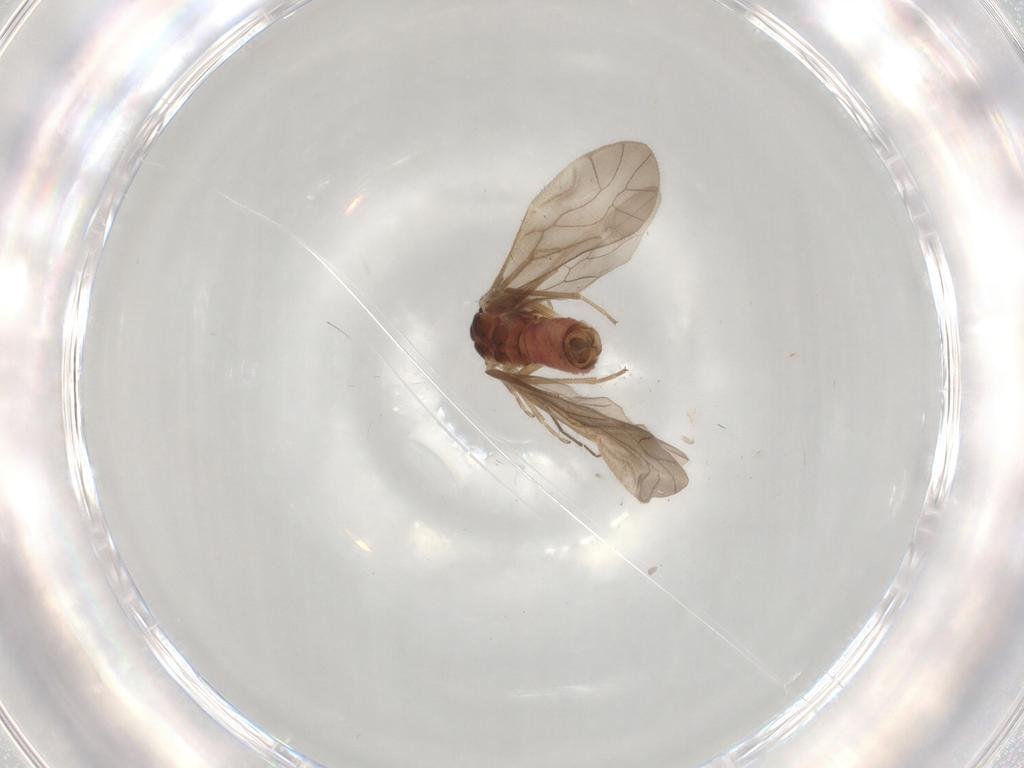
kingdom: Animalia
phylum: Arthropoda
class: Insecta
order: Psocodea
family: Caeciliusidae
